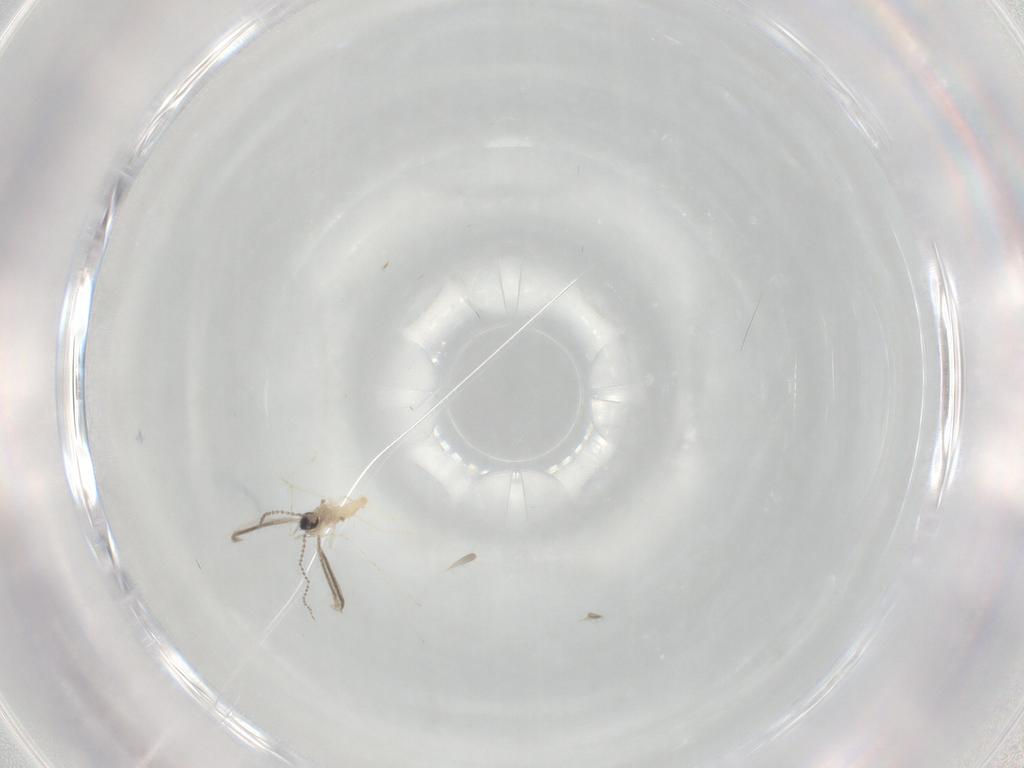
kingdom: Animalia
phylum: Arthropoda
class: Insecta
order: Diptera
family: Cecidomyiidae
